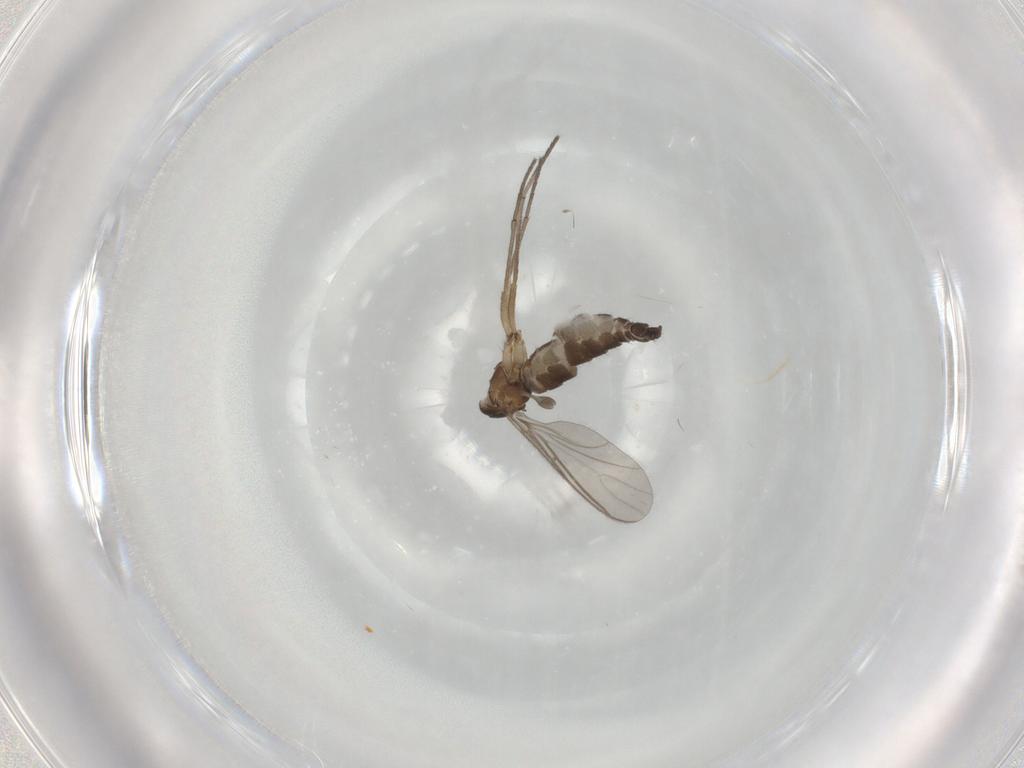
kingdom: Animalia
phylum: Arthropoda
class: Insecta
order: Diptera
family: Sciaridae
